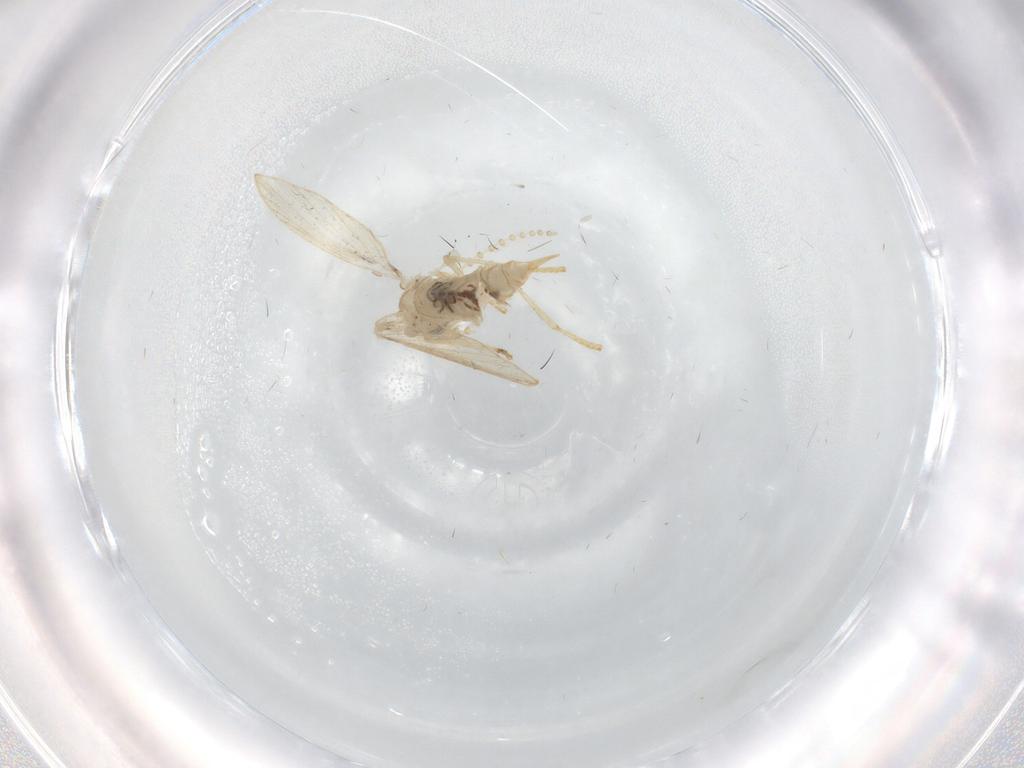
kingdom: Animalia
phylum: Arthropoda
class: Insecta
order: Diptera
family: Psychodidae
